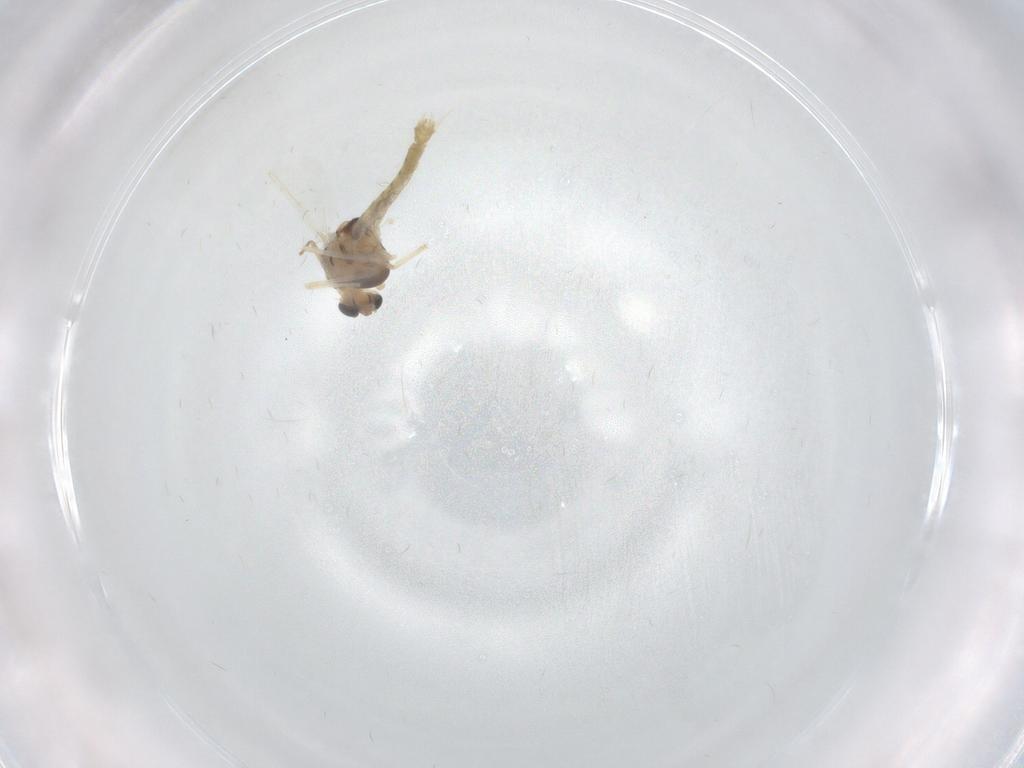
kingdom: Animalia
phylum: Arthropoda
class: Insecta
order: Diptera
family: Chironomidae
